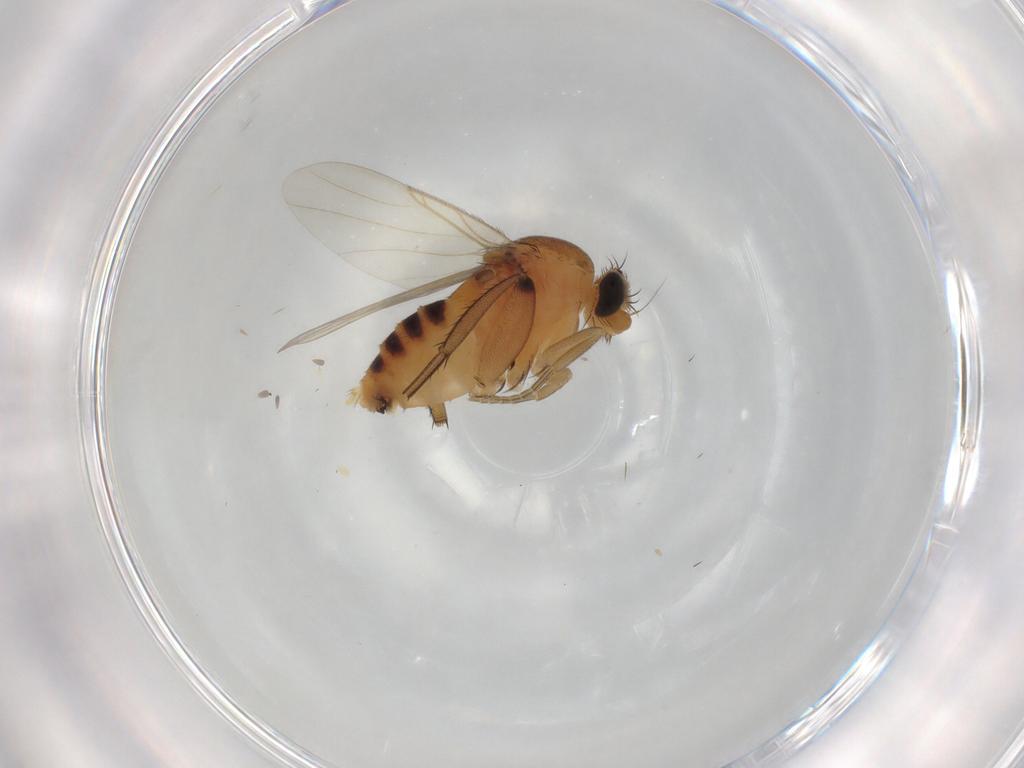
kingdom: Animalia
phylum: Arthropoda
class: Insecta
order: Diptera
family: Phoridae
